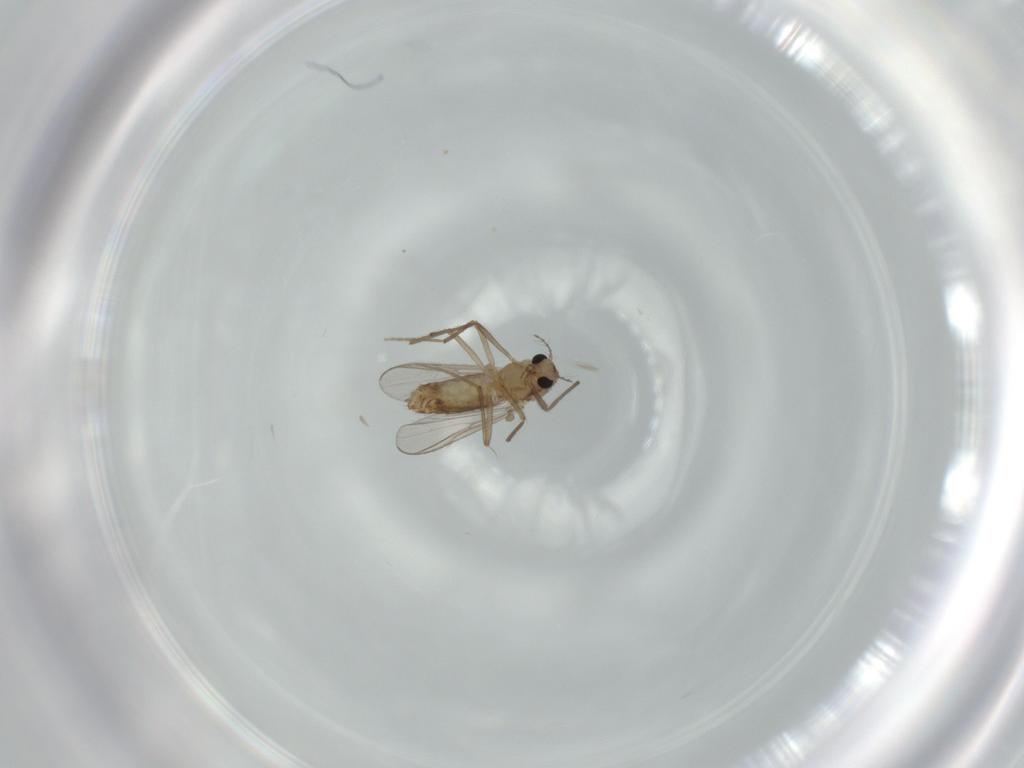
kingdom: Animalia
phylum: Arthropoda
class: Insecta
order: Diptera
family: Chironomidae
